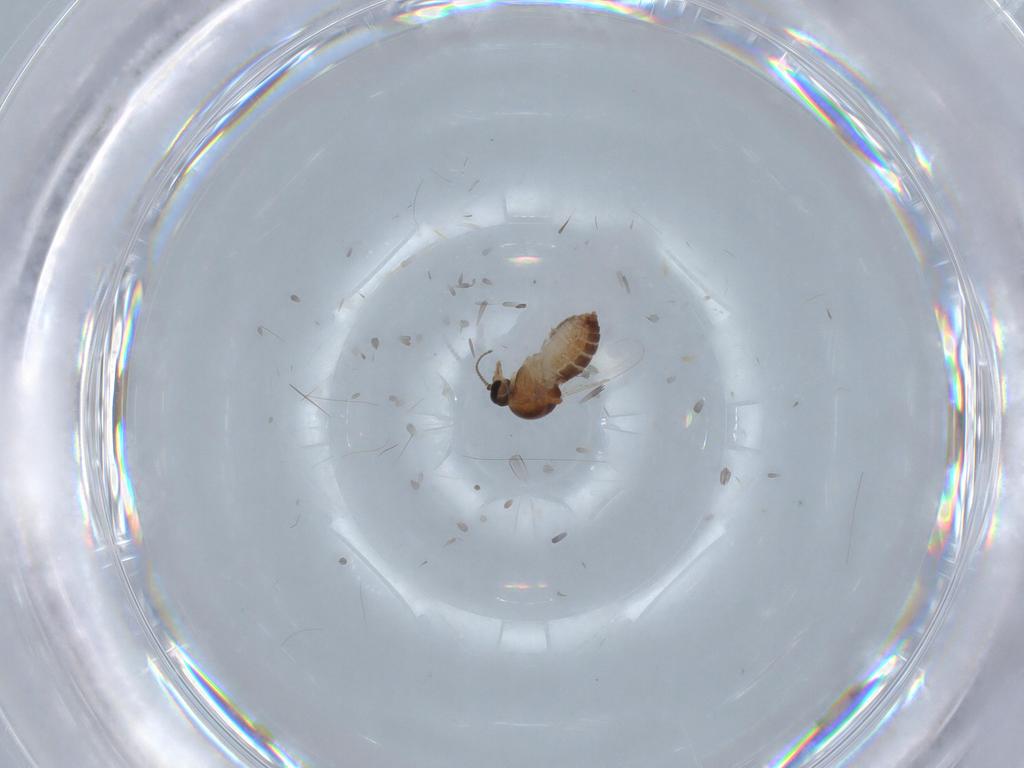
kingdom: Animalia
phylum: Arthropoda
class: Insecta
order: Diptera
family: Ceratopogonidae
